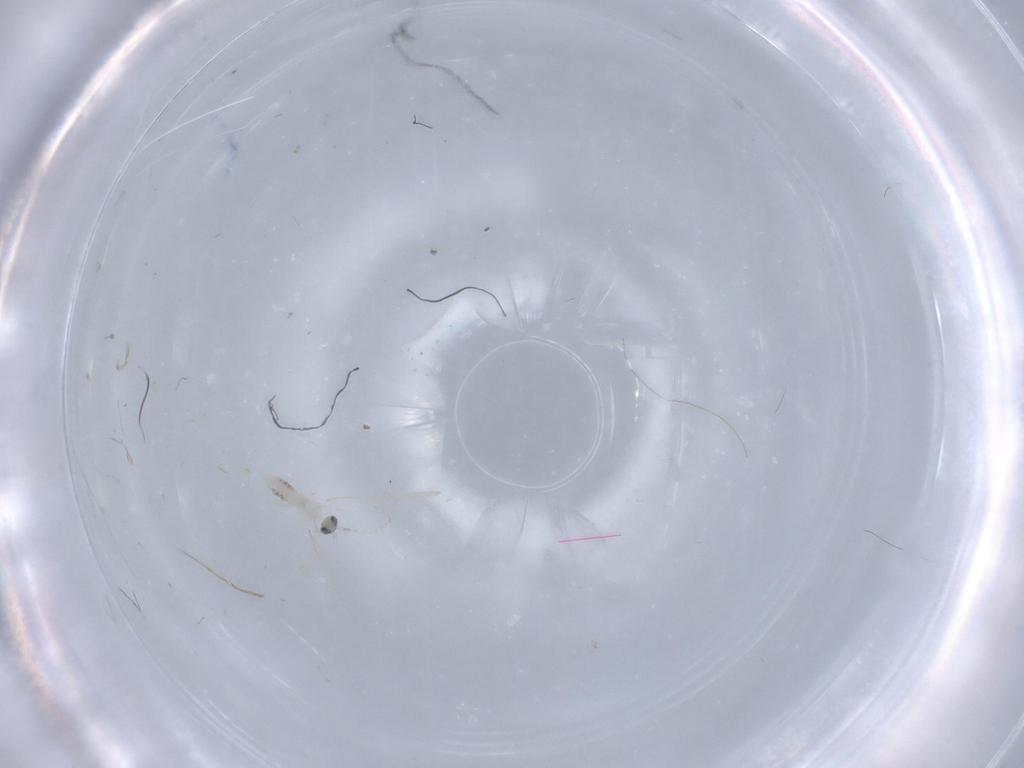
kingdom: Animalia
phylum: Arthropoda
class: Insecta
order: Diptera
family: Cecidomyiidae
